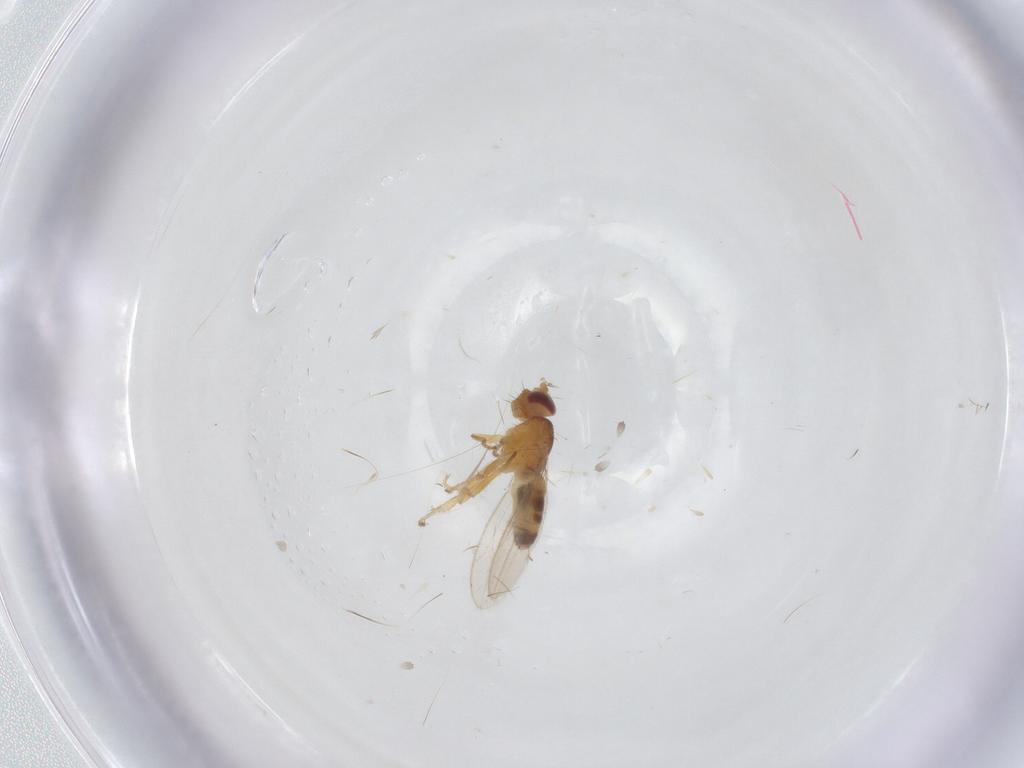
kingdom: Animalia
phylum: Arthropoda
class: Insecta
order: Diptera
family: Periscelididae
